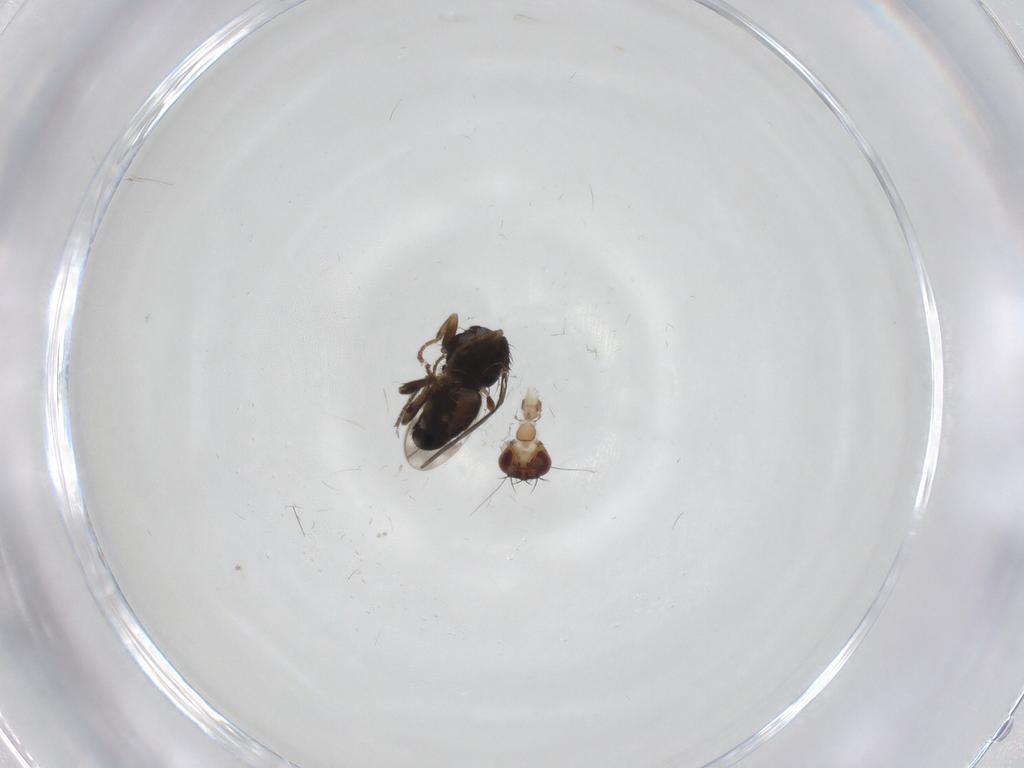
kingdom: Animalia
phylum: Arthropoda
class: Insecta
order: Diptera
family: Sphaeroceridae
